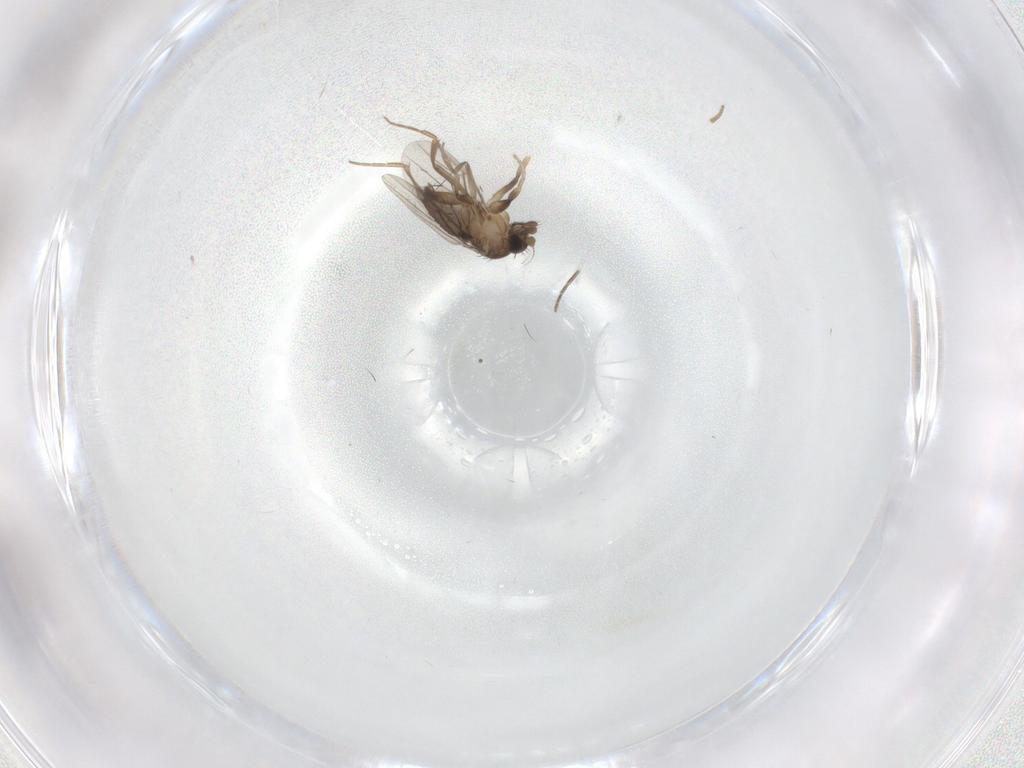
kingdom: Animalia
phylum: Arthropoda
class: Insecta
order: Diptera
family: Phoridae
